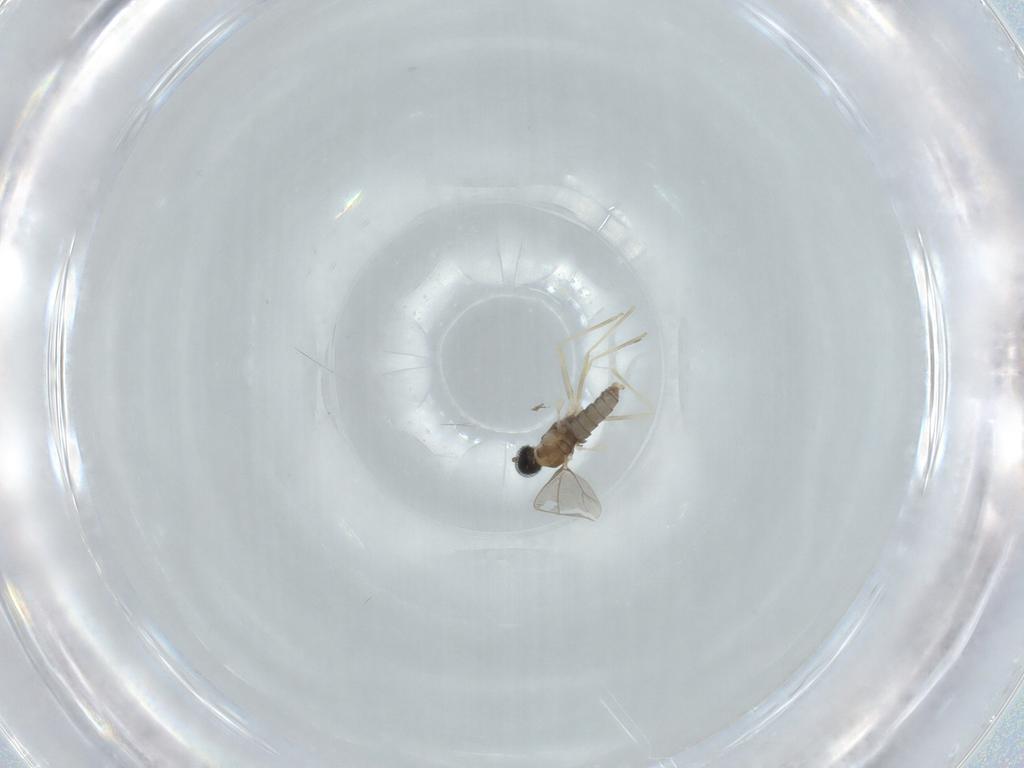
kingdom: Animalia
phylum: Arthropoda
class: Insecta
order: Diptera
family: Cecidomyiidae
